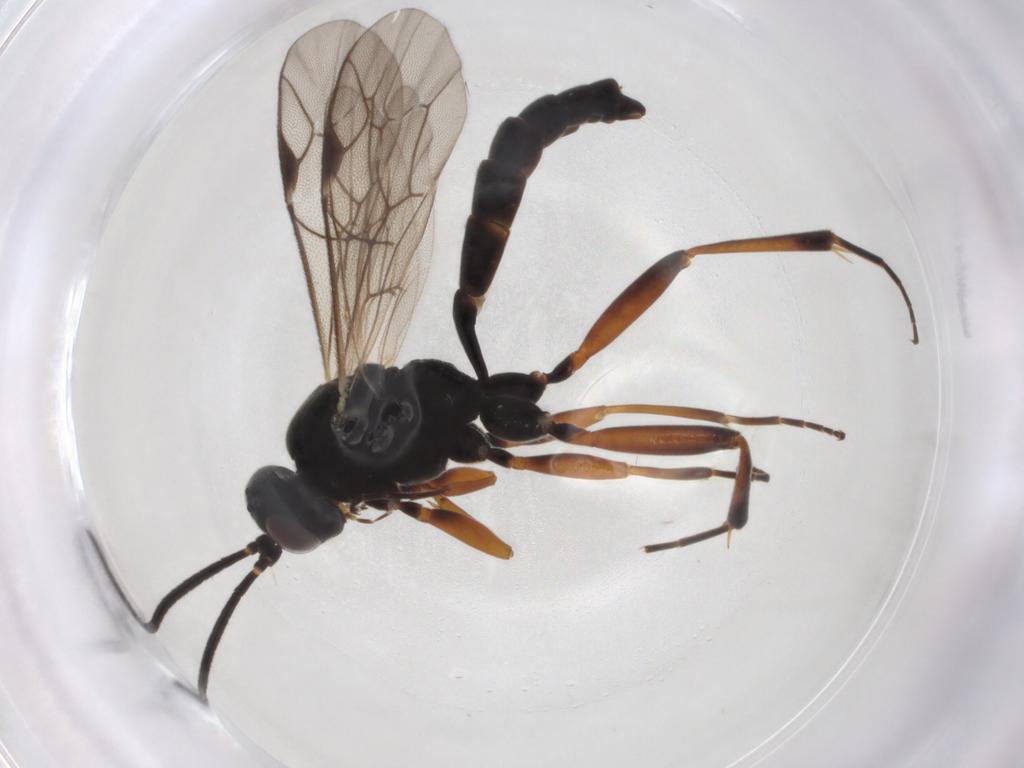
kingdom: Animalia
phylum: Arthropoda
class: Insecta
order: Hymenoptera
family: Ichneumonidae
